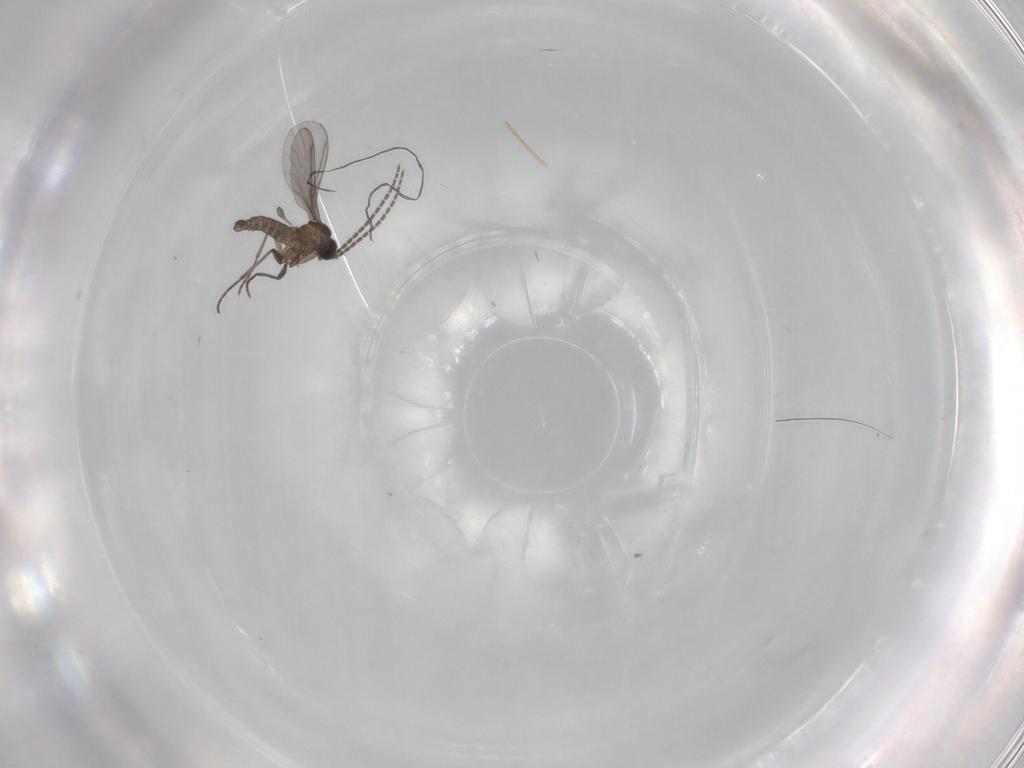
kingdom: Animalia
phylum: Arthropoda
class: Insecta
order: Diptera
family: Sciaridae
